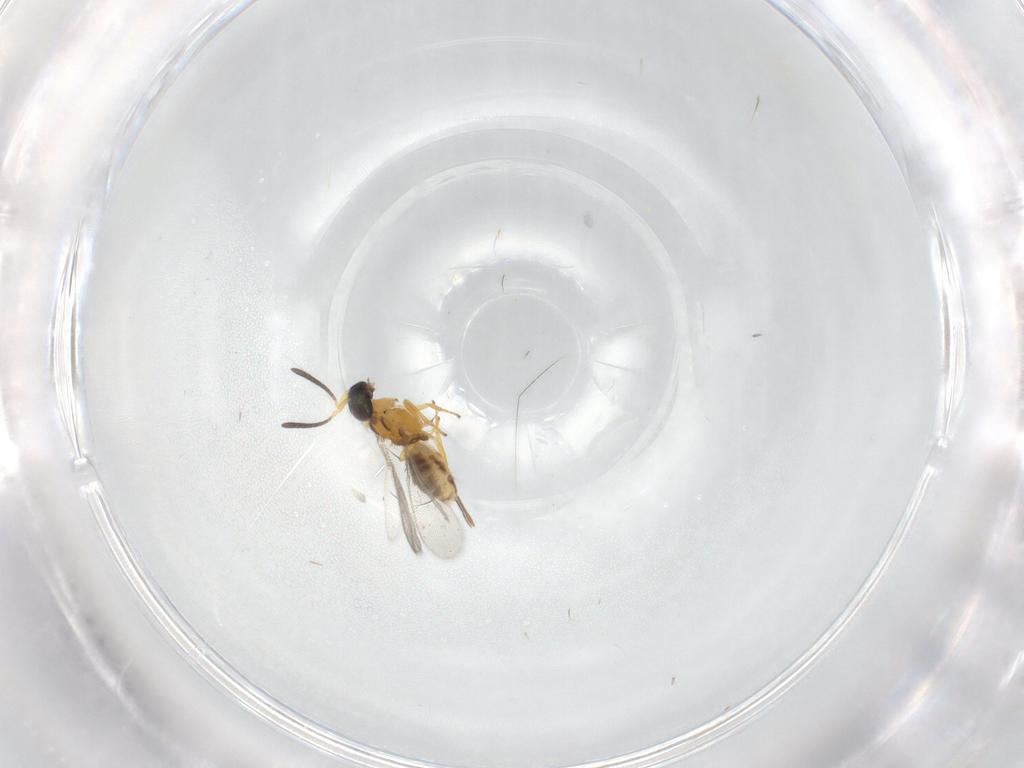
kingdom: Animalia
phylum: Arthropoda
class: Insecta
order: Hymenoptera
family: Eupelmidae
